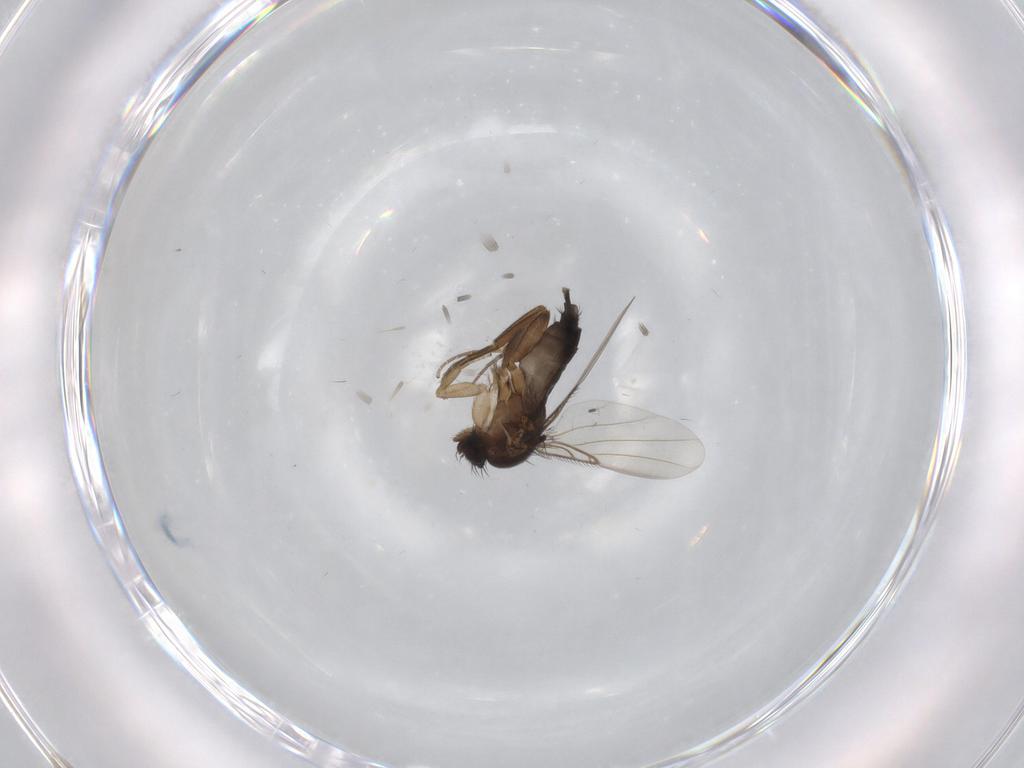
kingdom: Animalia
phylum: Arthropoda
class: Insecta
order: Diptera
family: Phoridae
